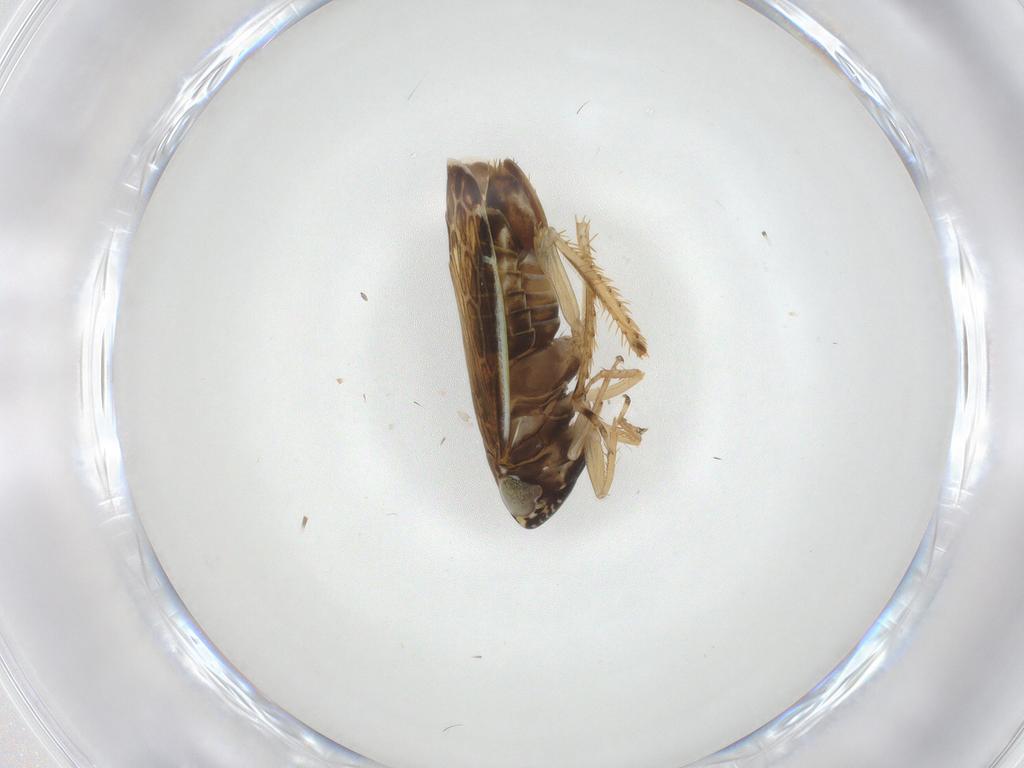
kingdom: Animalia
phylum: Arthropoda
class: Insecta
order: Hemiptera
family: Cicadellidae
